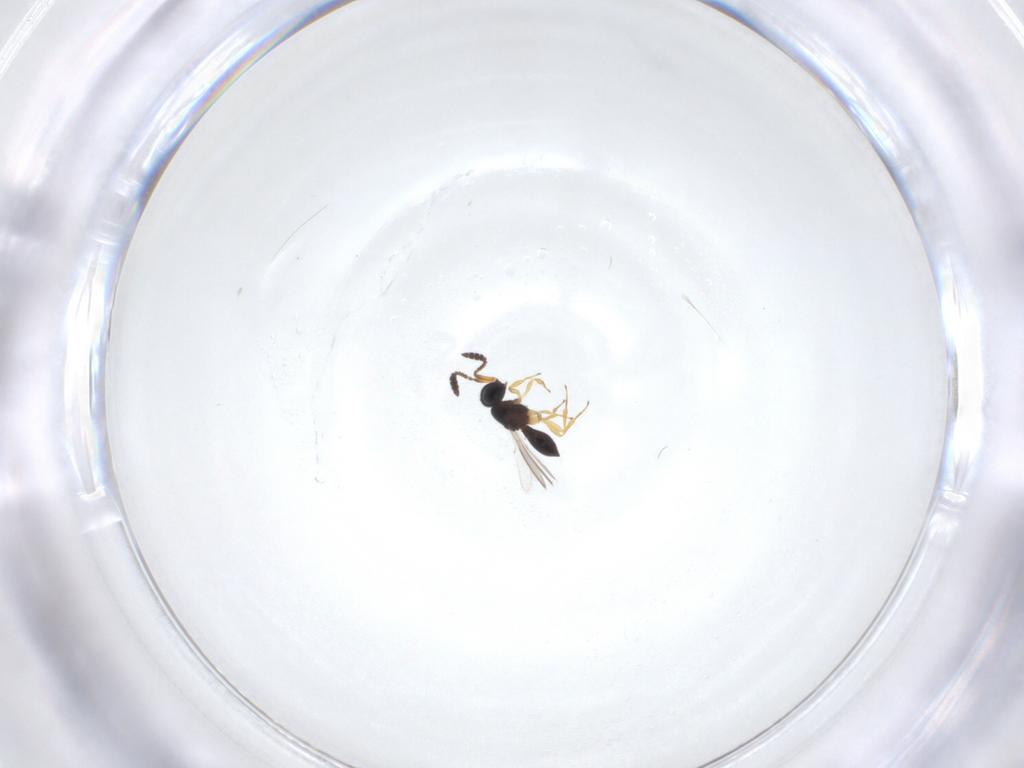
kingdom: Animalia
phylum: Arthropoda
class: Insecta
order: Hymenoptera
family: Scelionidae
